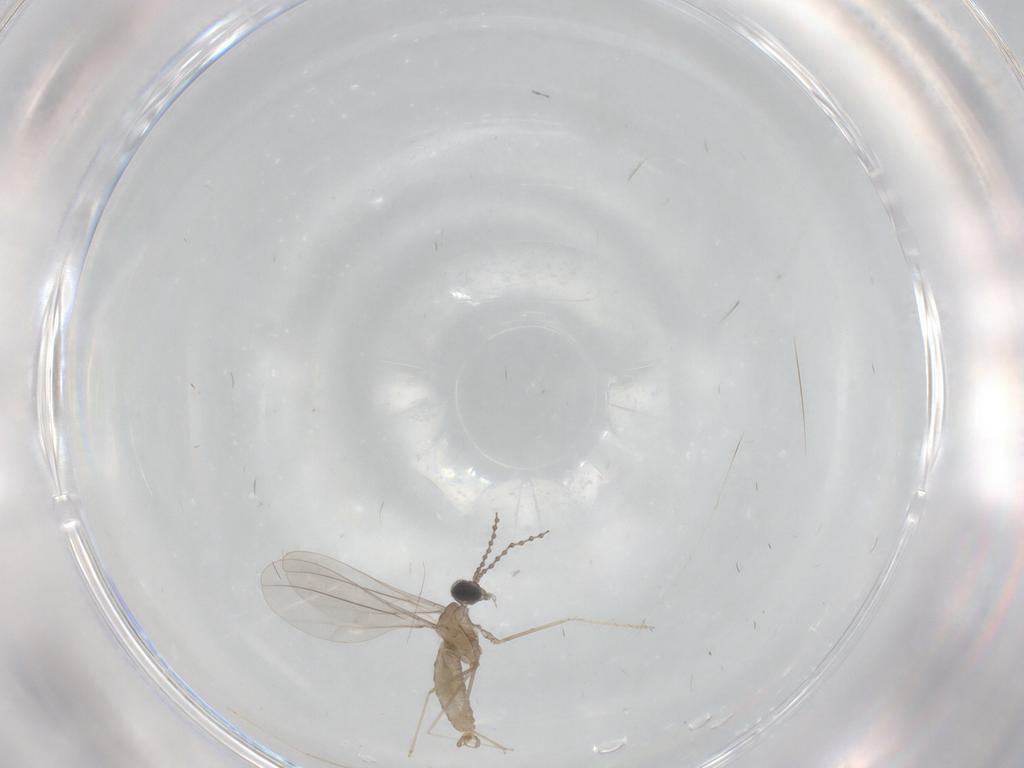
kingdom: Animalia
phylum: Arthropoda
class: Insecta
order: Diptera
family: Cecidomyiidae
